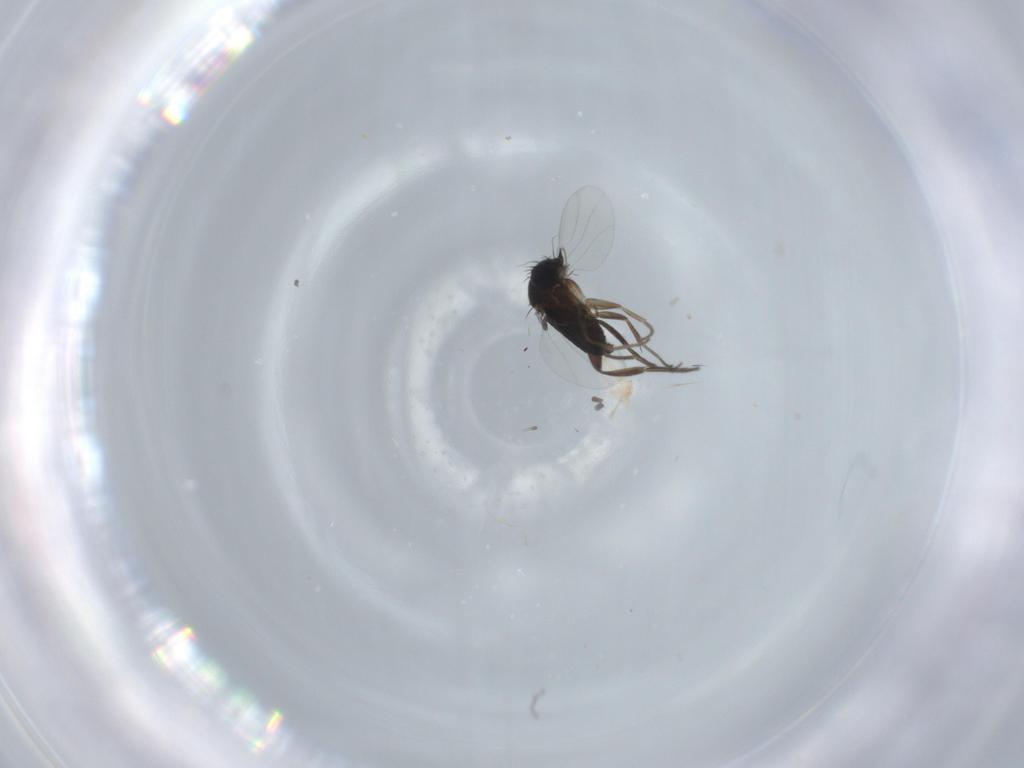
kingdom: Animalia
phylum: Arthropoda
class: Insecta
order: Diptera
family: Phoridae
